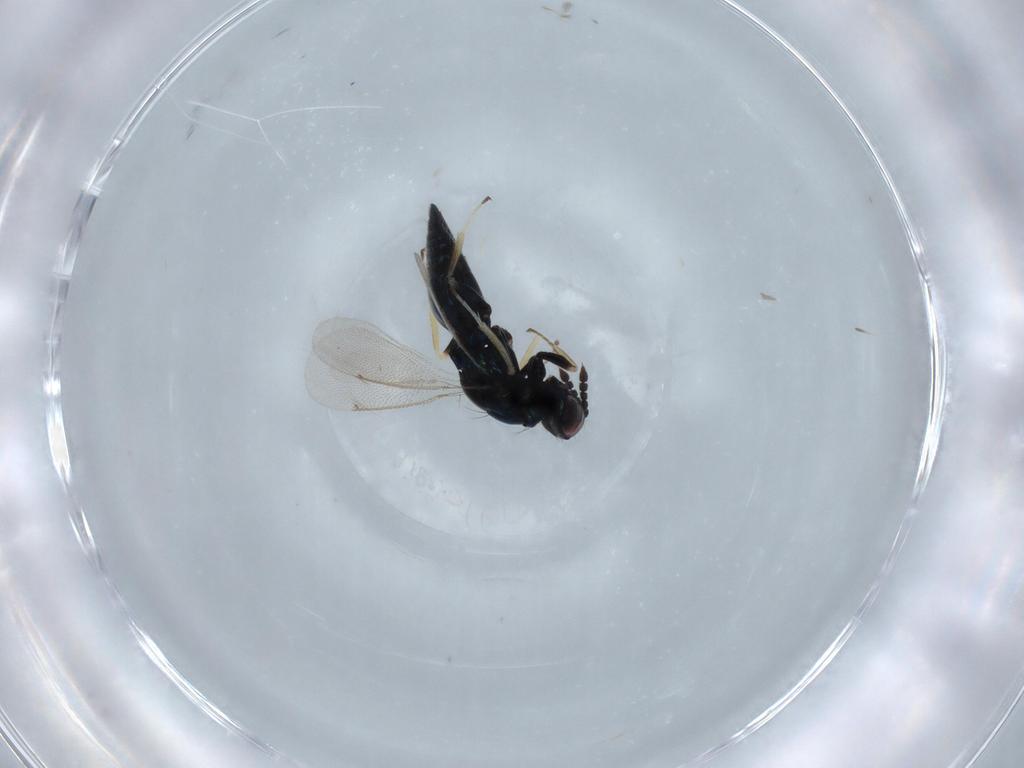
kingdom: Animalia
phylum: Arthropoda
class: Insecta
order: Hymenoptera
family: Eulophidae
